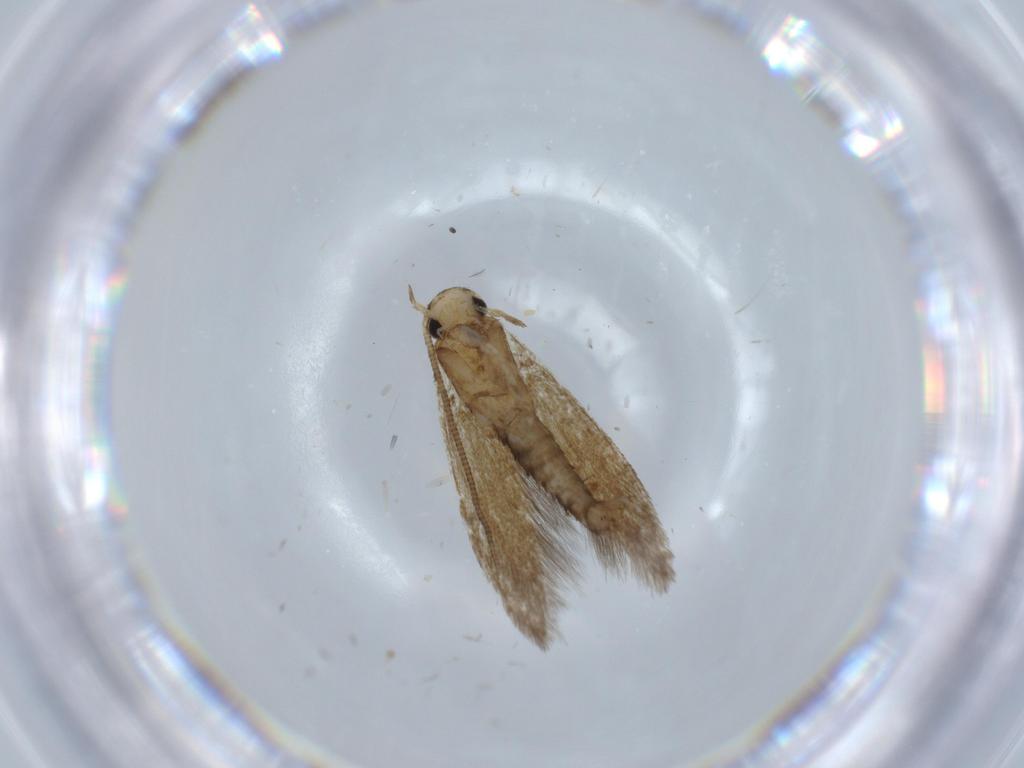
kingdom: Animalia
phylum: Arthropoda
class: Insecta
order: Lepidoptera
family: Tineidae
